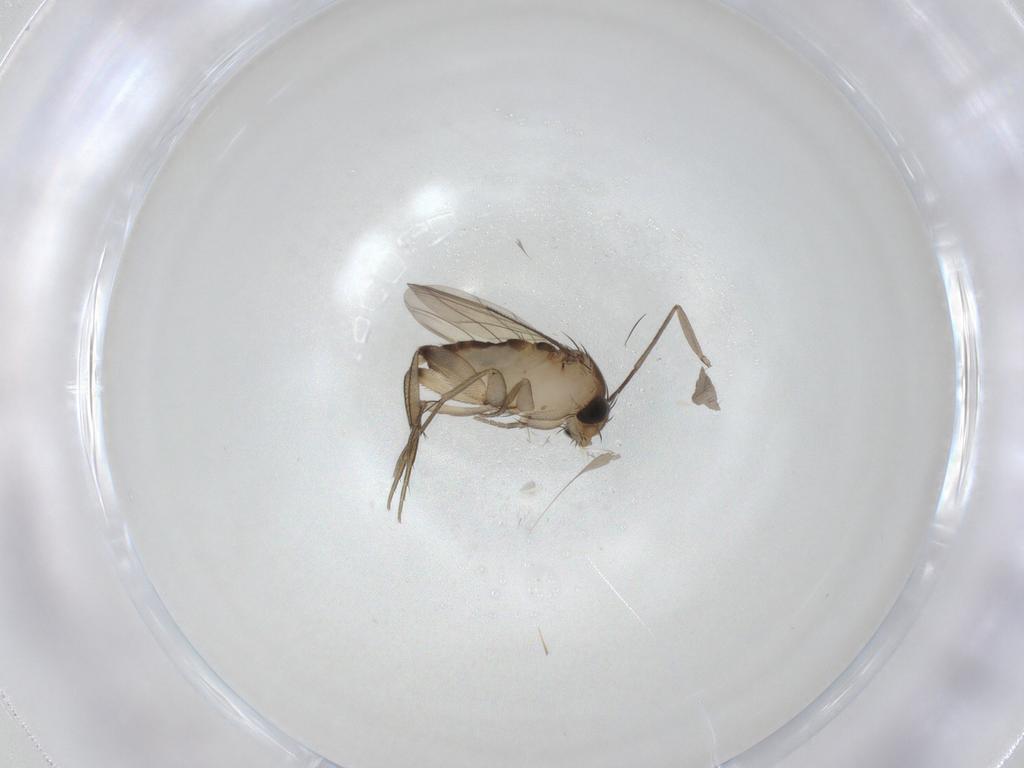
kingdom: Animalia
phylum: Arthropoda
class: Insecta
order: Diptera
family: Phoridae
